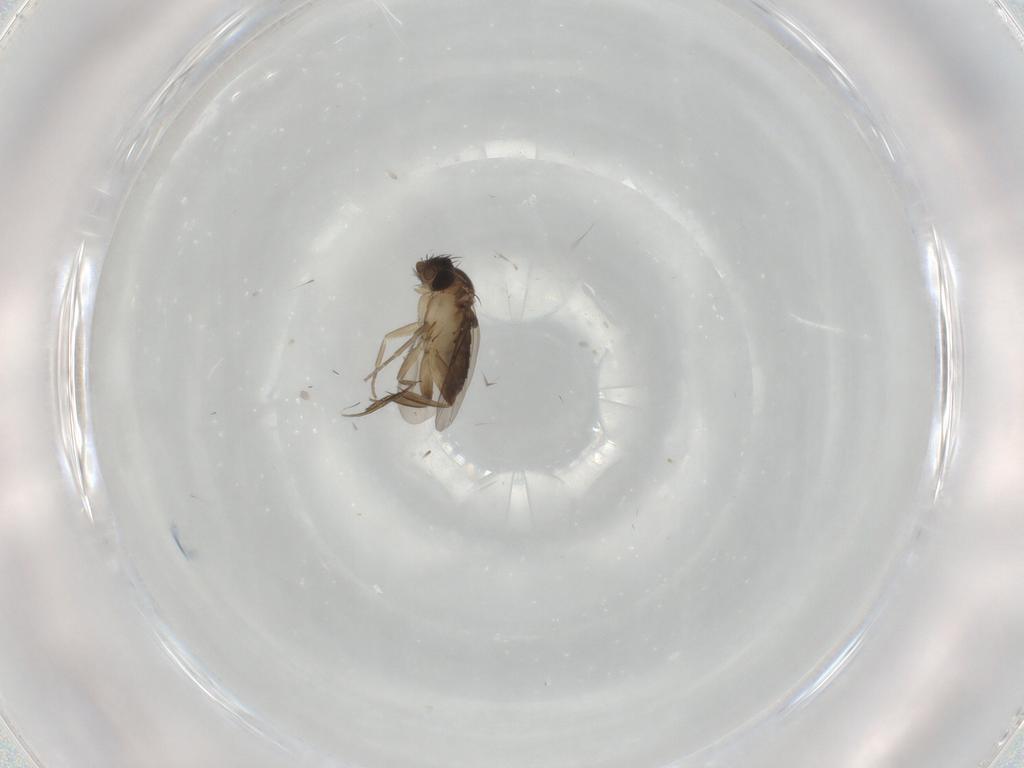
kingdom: Animalia
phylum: Arthropoda
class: Insecta
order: Diptera
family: Phoridae
